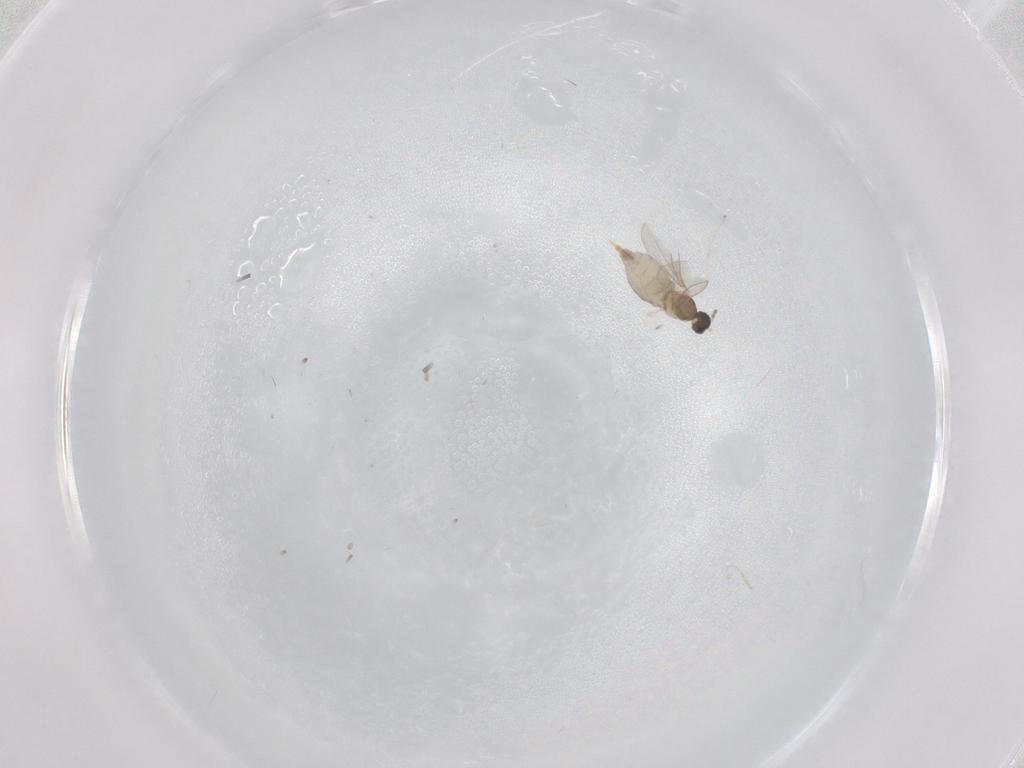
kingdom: Animalia
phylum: Arthropoda
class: Insecta
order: Diptera
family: Cecidomyiidae
